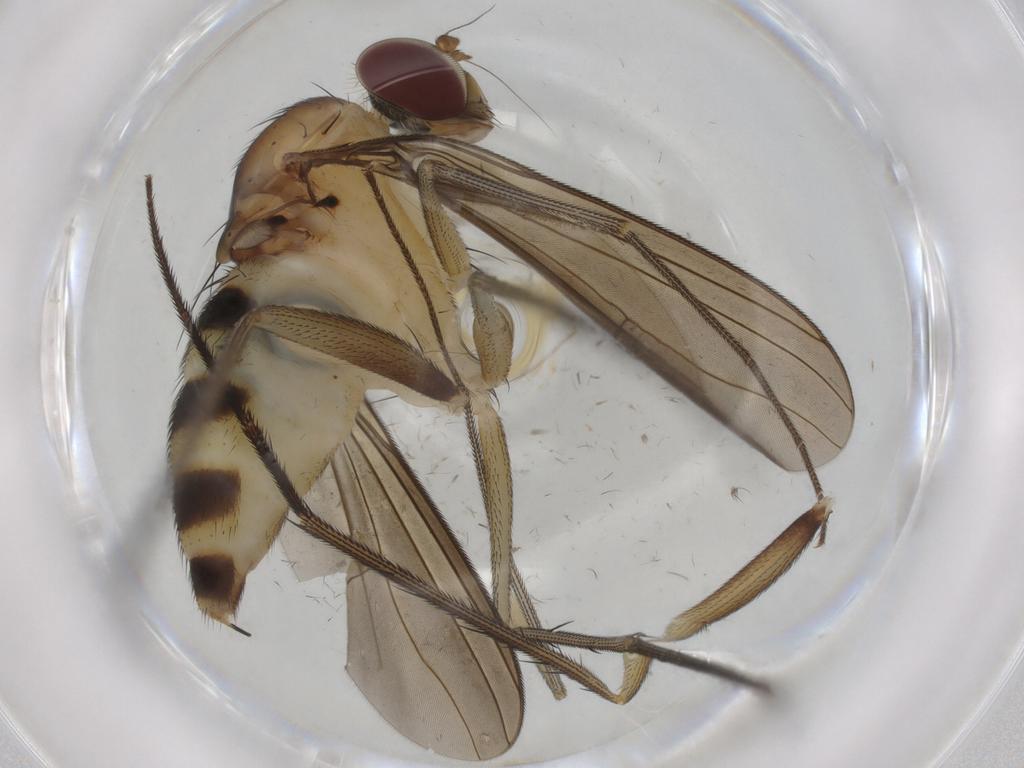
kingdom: Animalia
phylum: Arthropoda
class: Insecta
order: Diptera
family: Dolichopodidae
